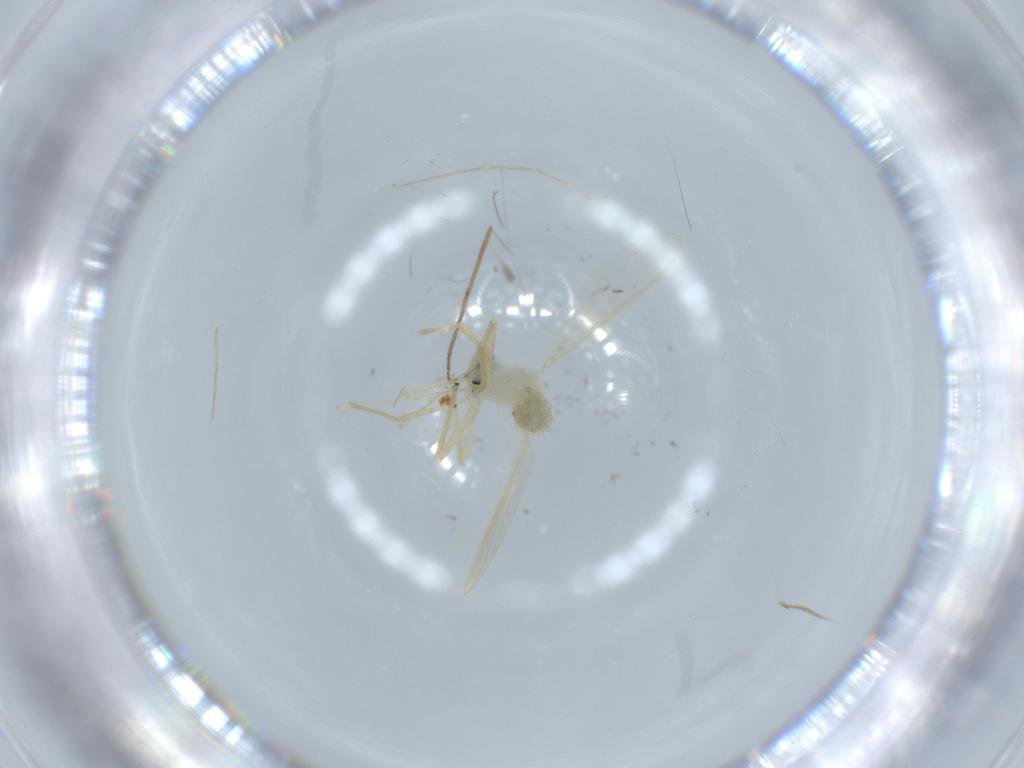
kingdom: Animalia
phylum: Arthropoda
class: Insecta
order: Diptera
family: Chironomidae
